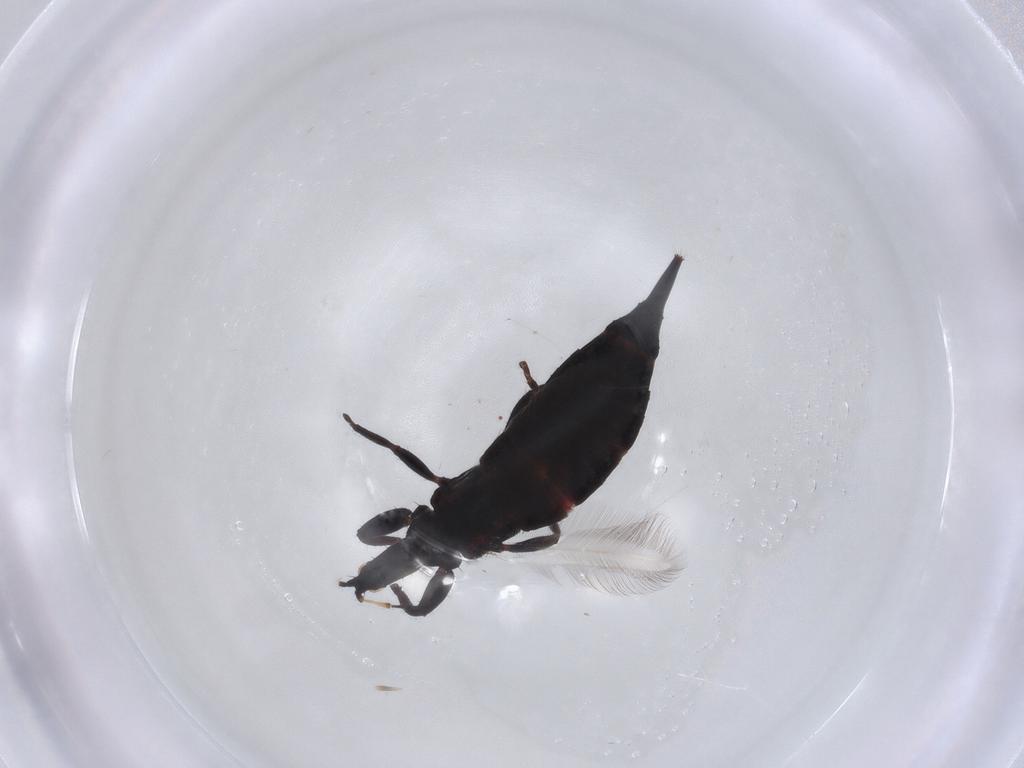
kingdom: Animalia
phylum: Arthropoda
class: Insecta
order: Thysanoptera
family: Phlaeothripidae
